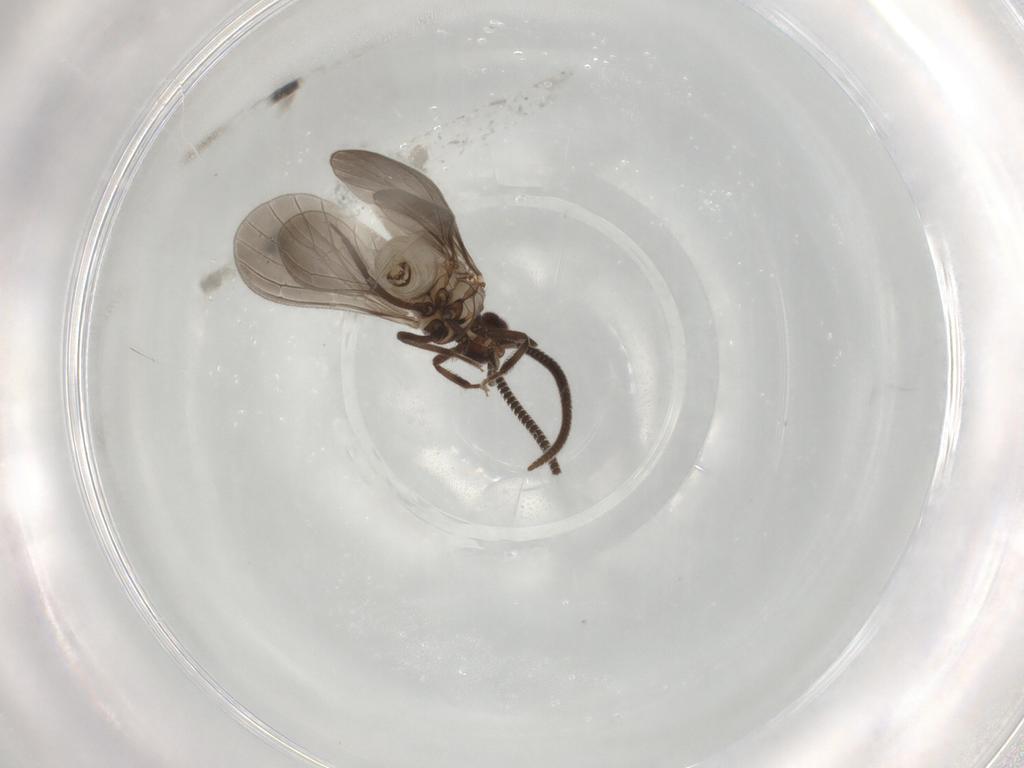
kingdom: Animalia
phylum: Arthropoda
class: Insecta
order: Neuroptera
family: Coniopterygidae
